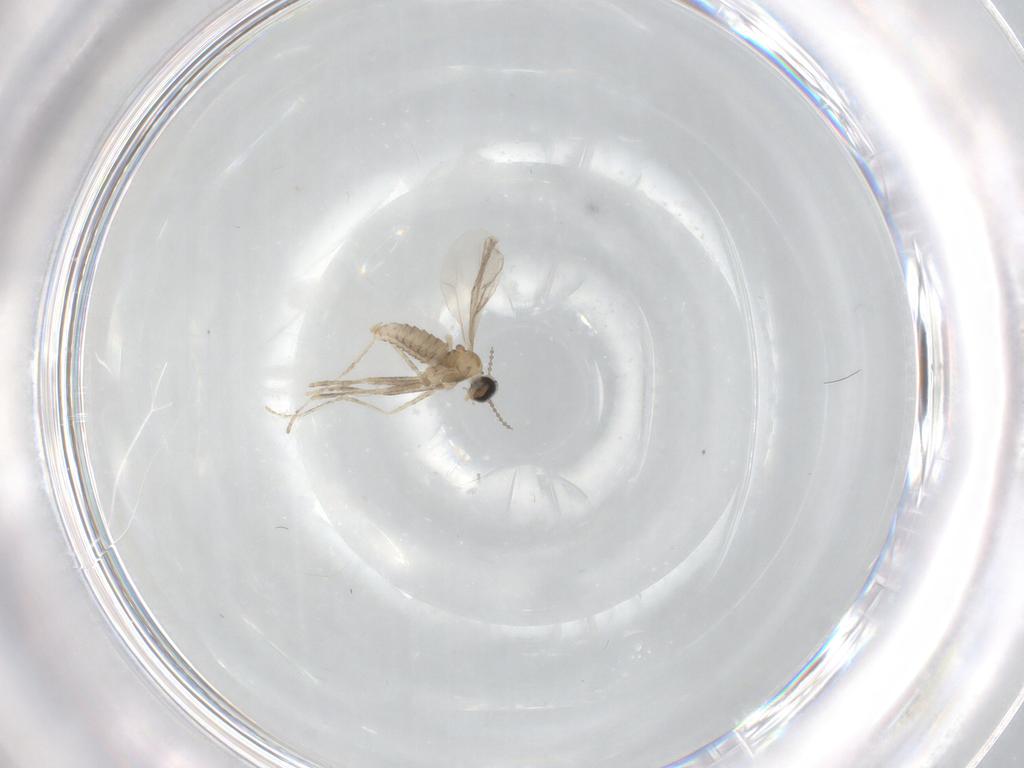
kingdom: Animalia
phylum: Arthropoda
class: Insecta
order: Diptera
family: Cecidomyiidae
